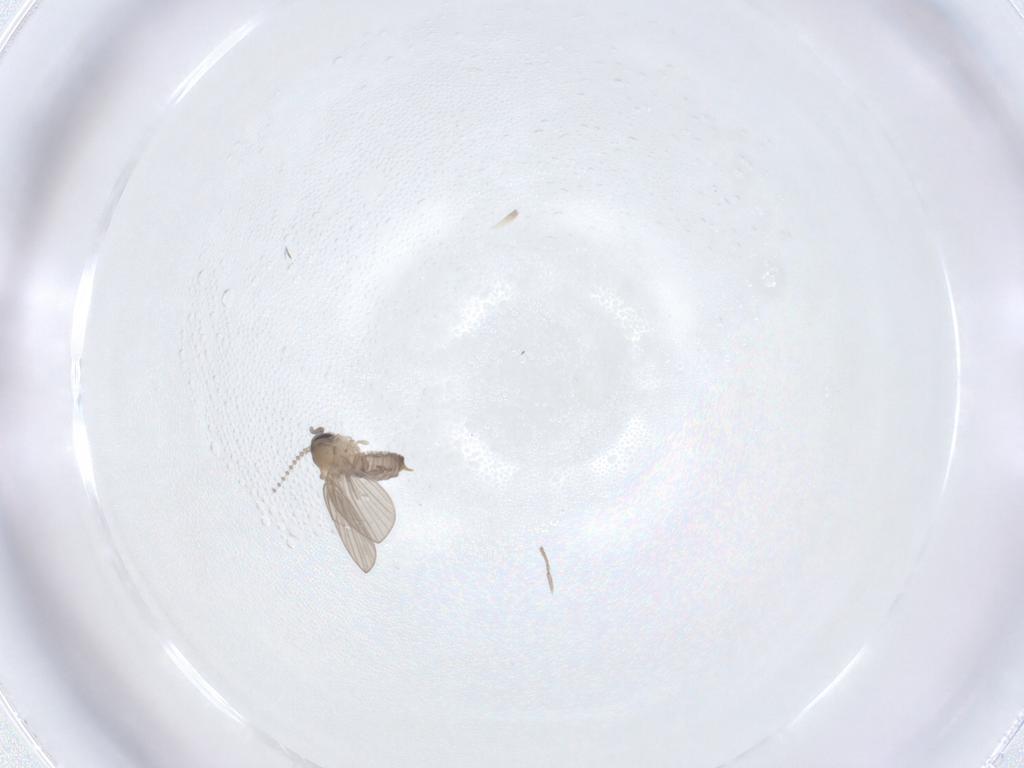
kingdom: Animalia
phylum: Arthropoda
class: Insecta
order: Diptera
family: Psychodidae
